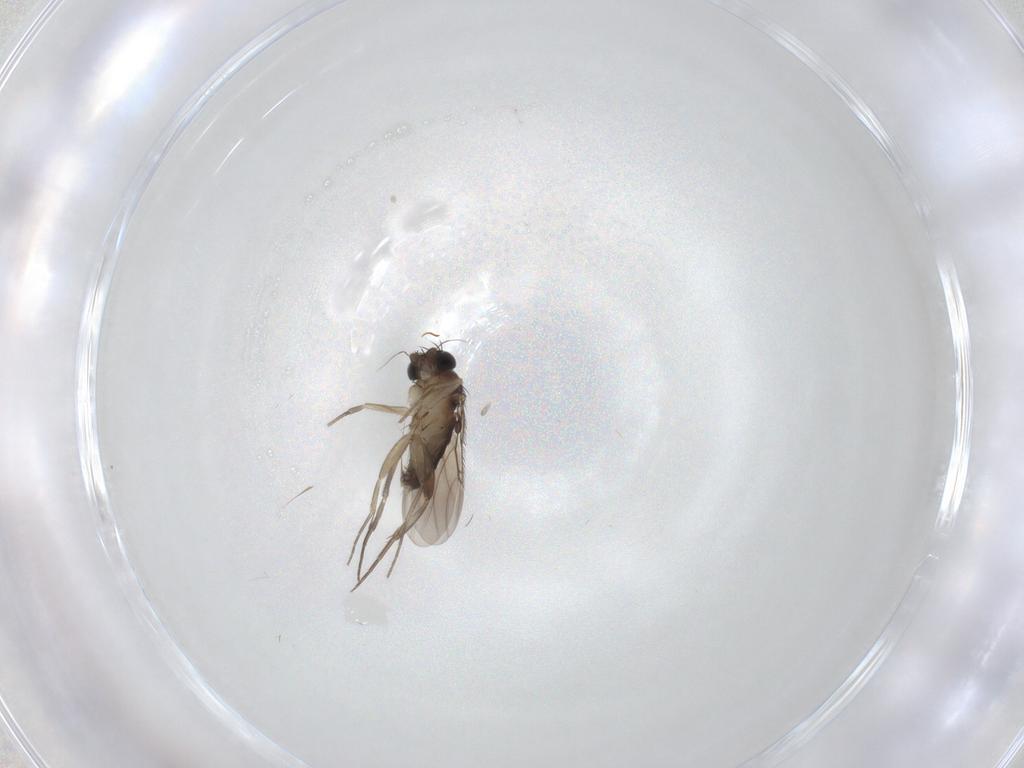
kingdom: Animalia
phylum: Arthropoda
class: Insecta
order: Diptera
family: Phoridae
